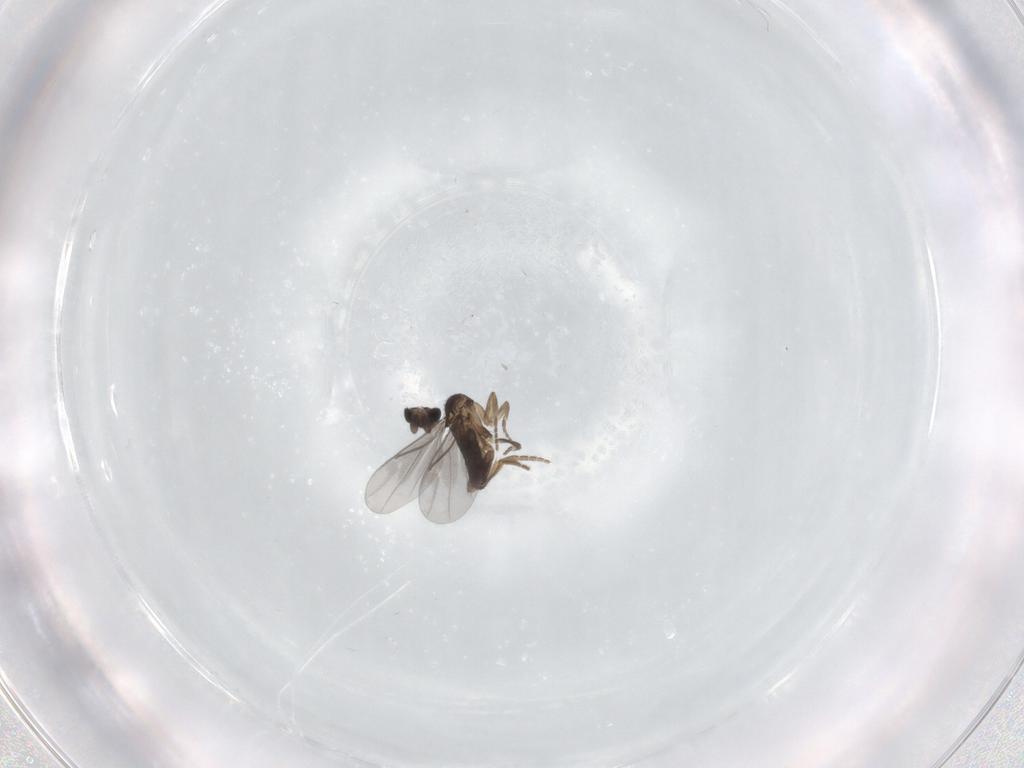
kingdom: Animalia
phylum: Arthropoda
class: Insecta
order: Diptera
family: Phoridae
